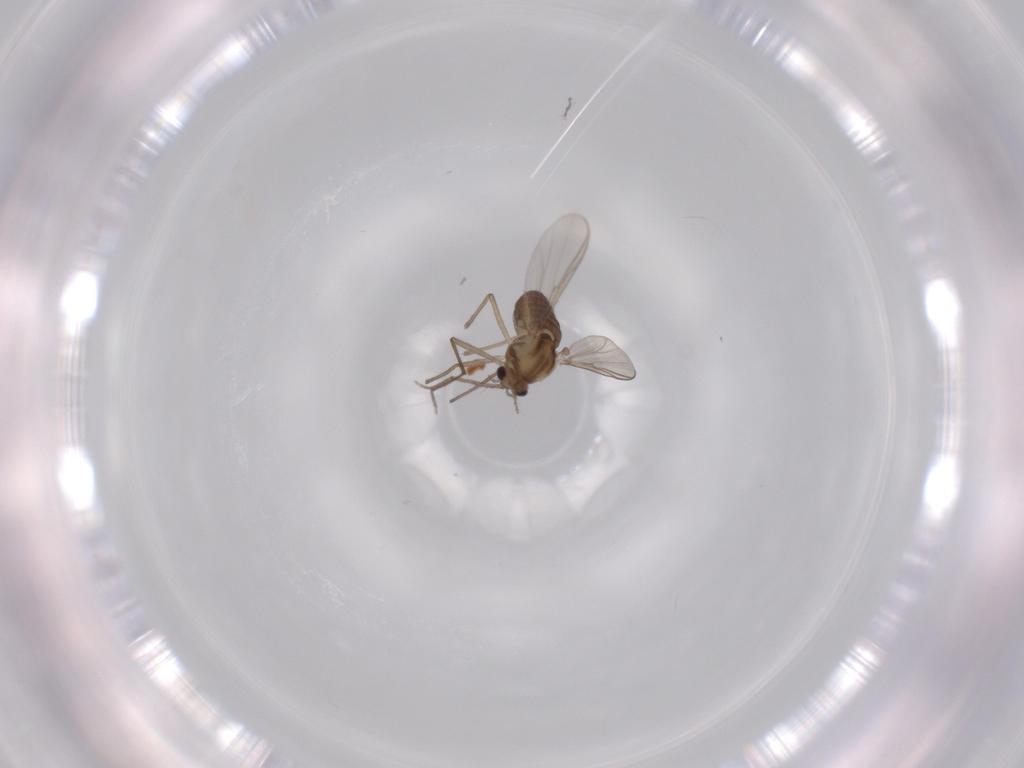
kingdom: Animalia
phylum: Arthropoda
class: Insecta
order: Diptera
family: Chironomidae
